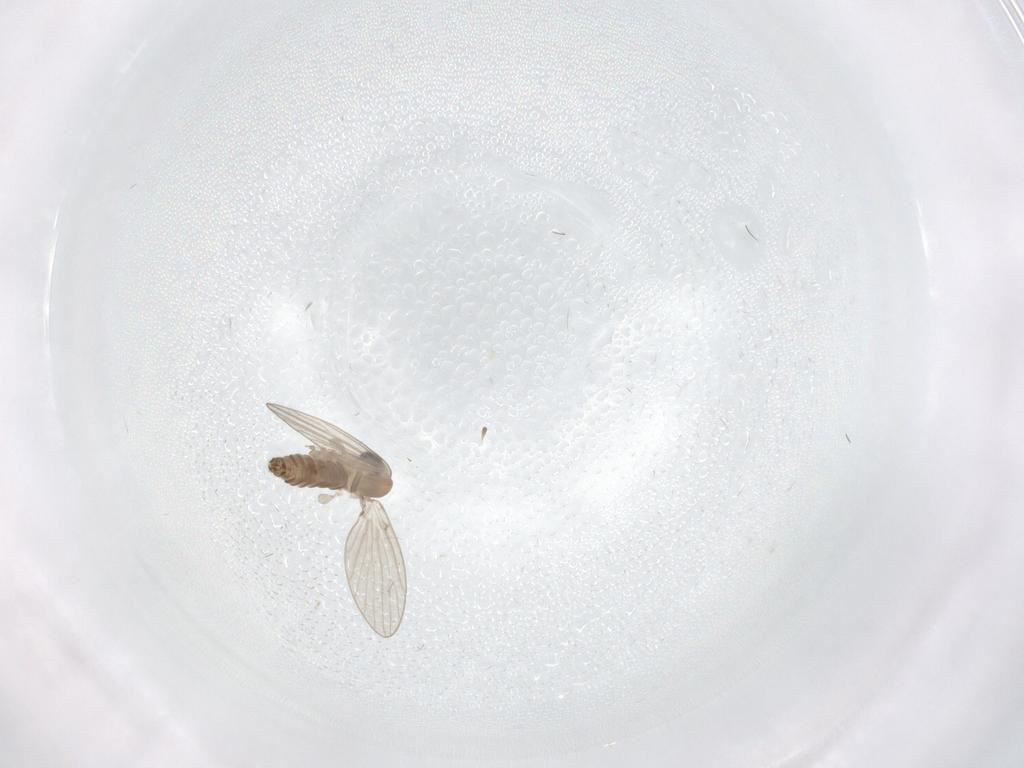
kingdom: Animalia
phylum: Arthropoda
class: Insecta
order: Diptera
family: Psychodidae
